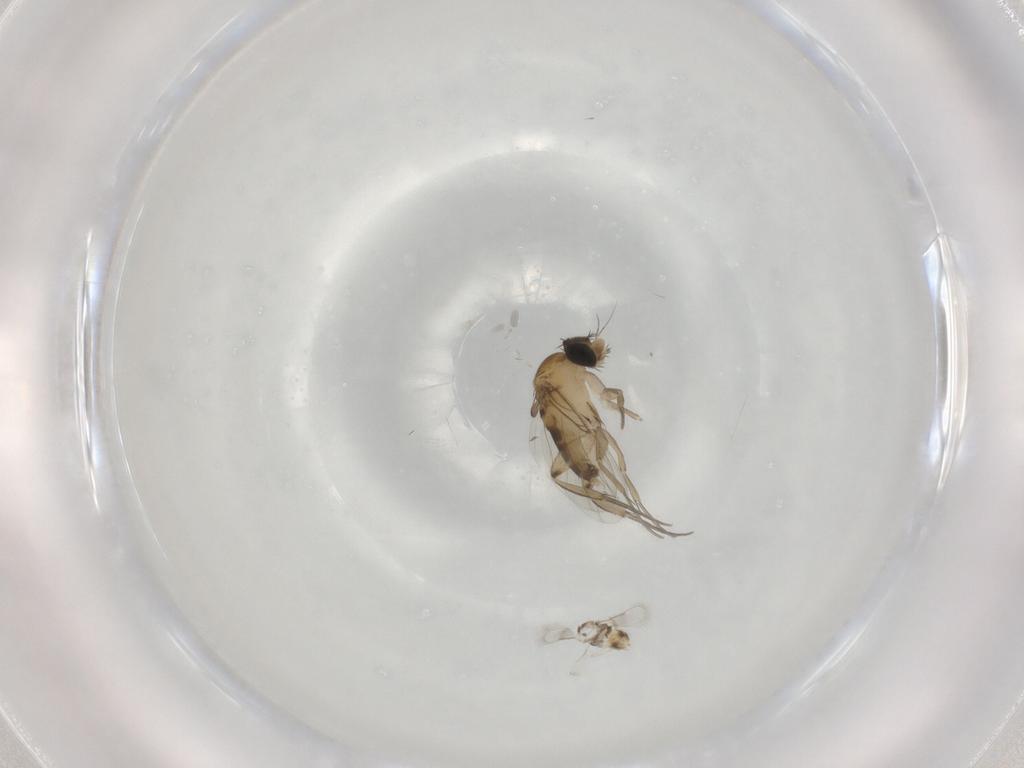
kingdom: Animalia
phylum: Arthropoda
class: Insecta
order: Diptera
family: Phoridae
